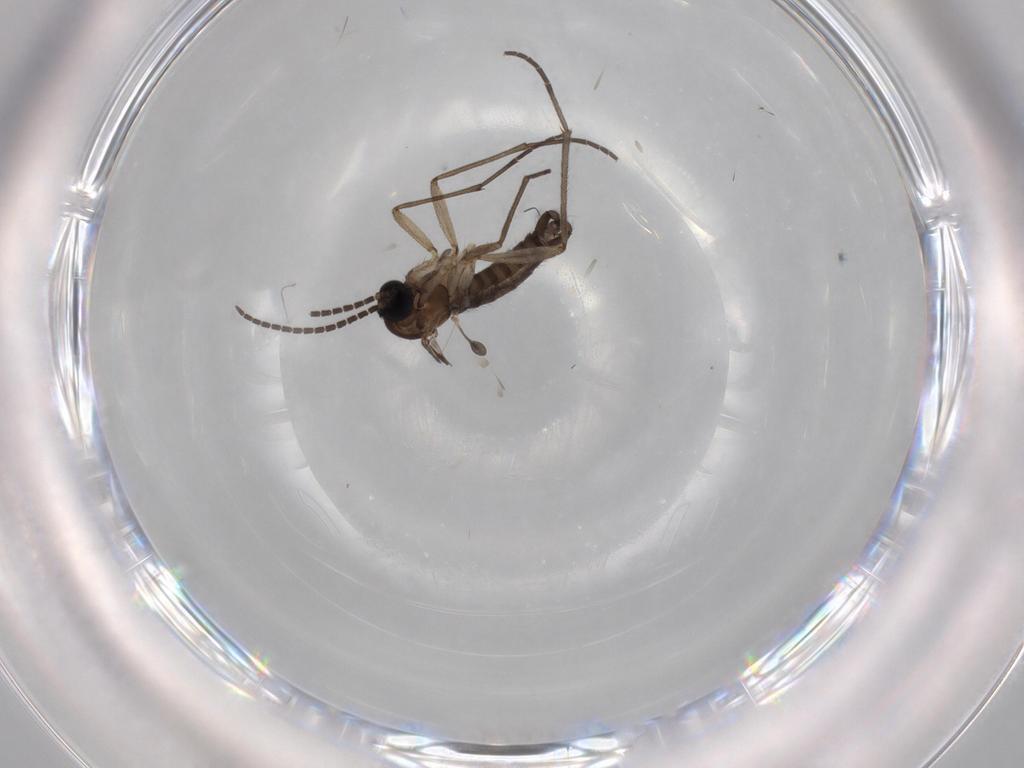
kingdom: Animalia
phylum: Arthropoda
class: Insecta
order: Diptera
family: Sciaridae
